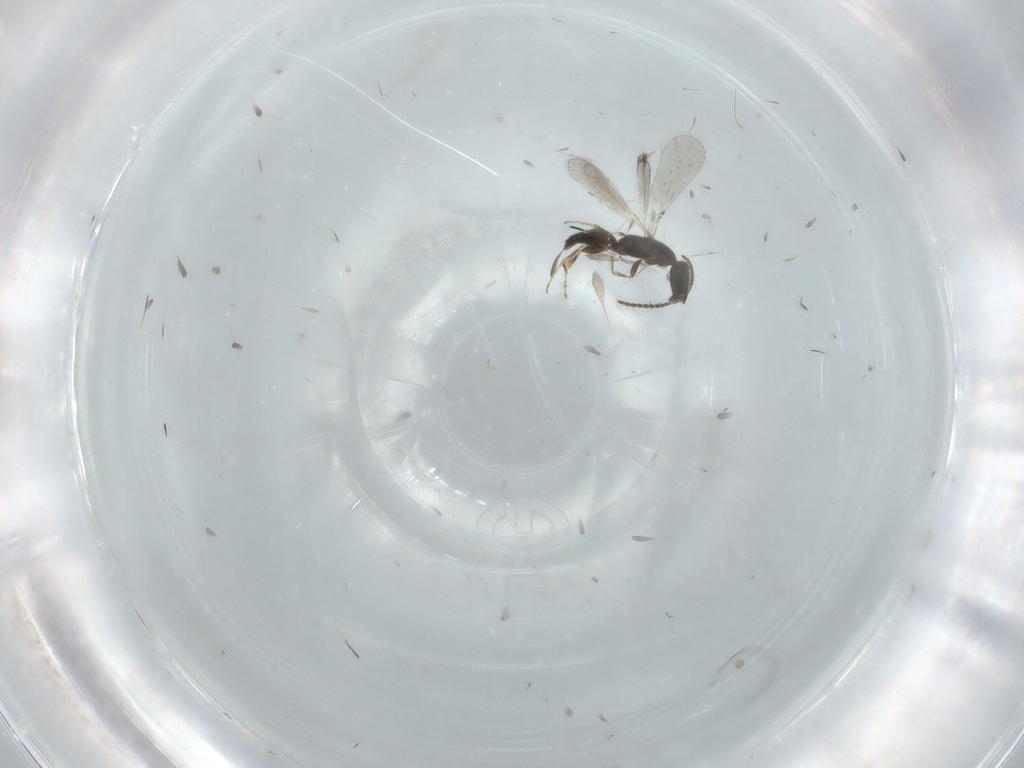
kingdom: Animalia
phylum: Arthropoda
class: Insecta
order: Hymenoptera
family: Bethylidae
